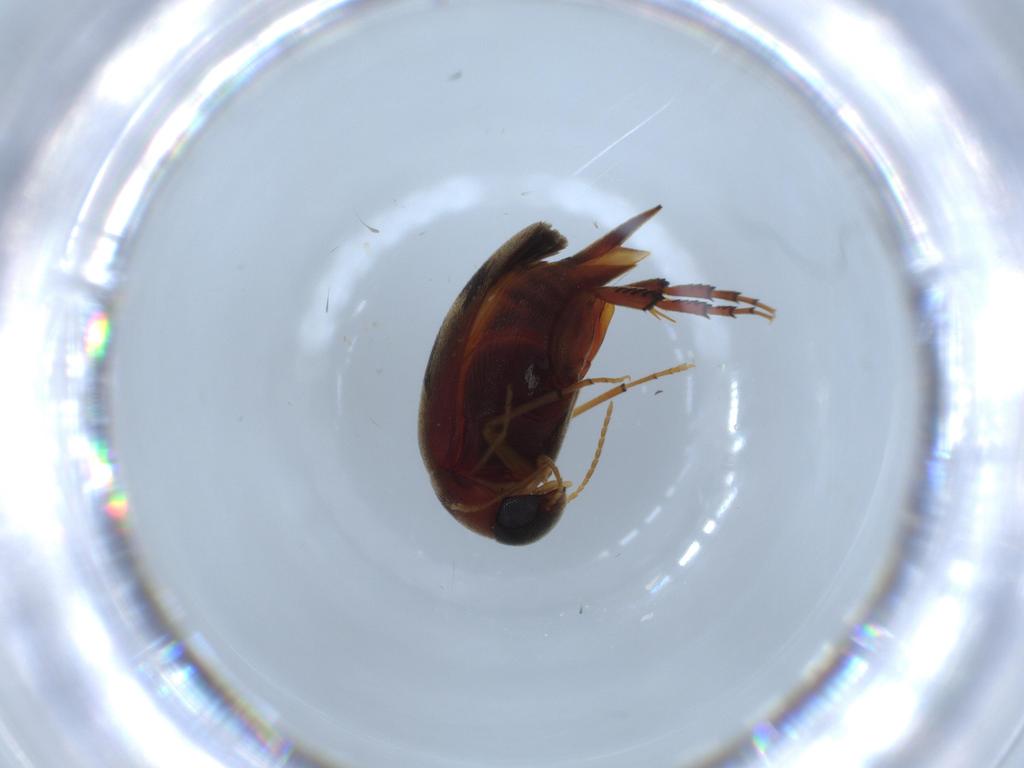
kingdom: Animalia
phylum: Arthropoda
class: Insecta
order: Coleoptera
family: Mordellidae
